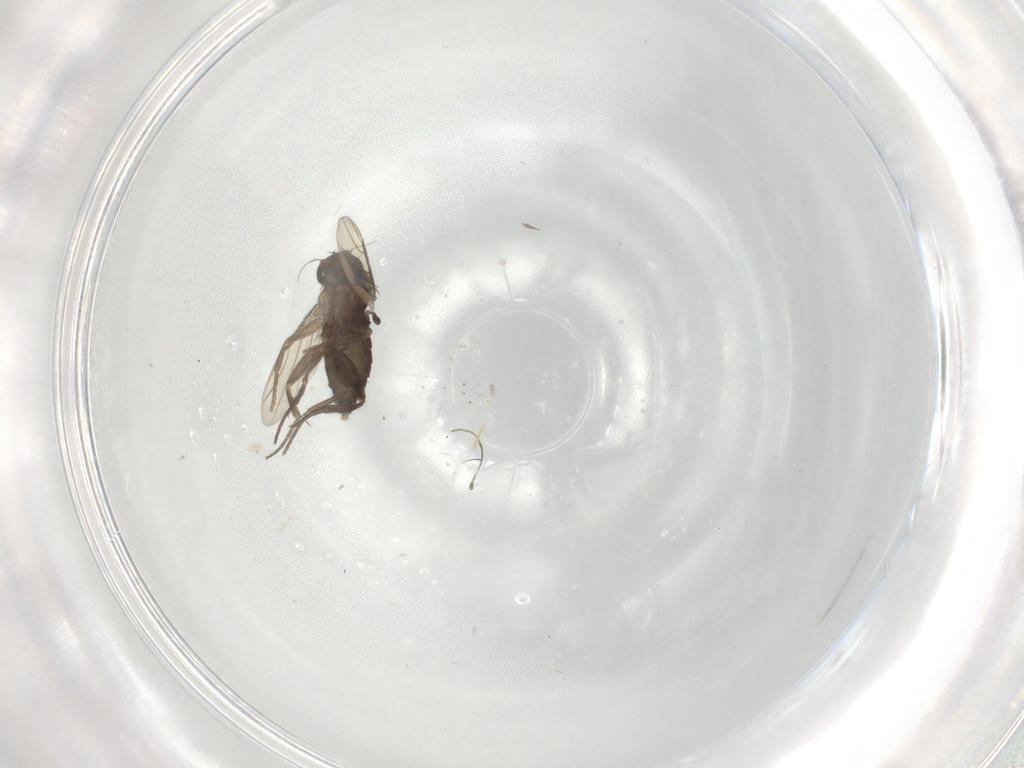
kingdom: Animalia
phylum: Arthropoda
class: Insecta
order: Diptera
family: Phoridae
